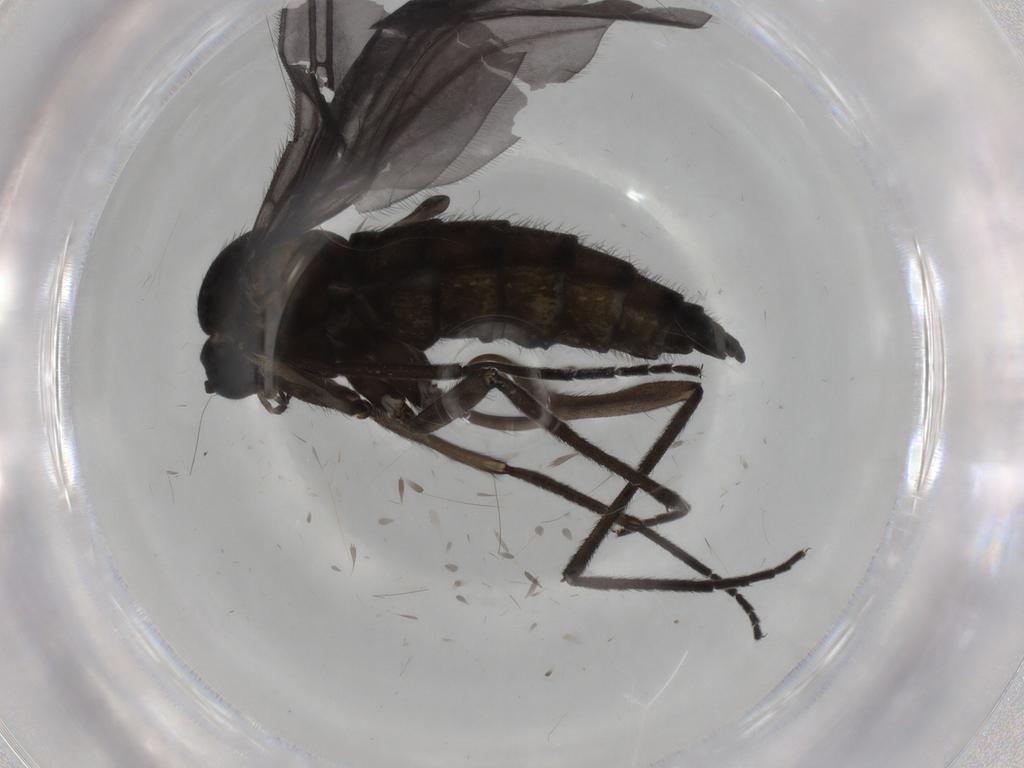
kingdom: Animalia
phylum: Arthropoda
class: Insecta
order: Diptera
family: Sciaridae
